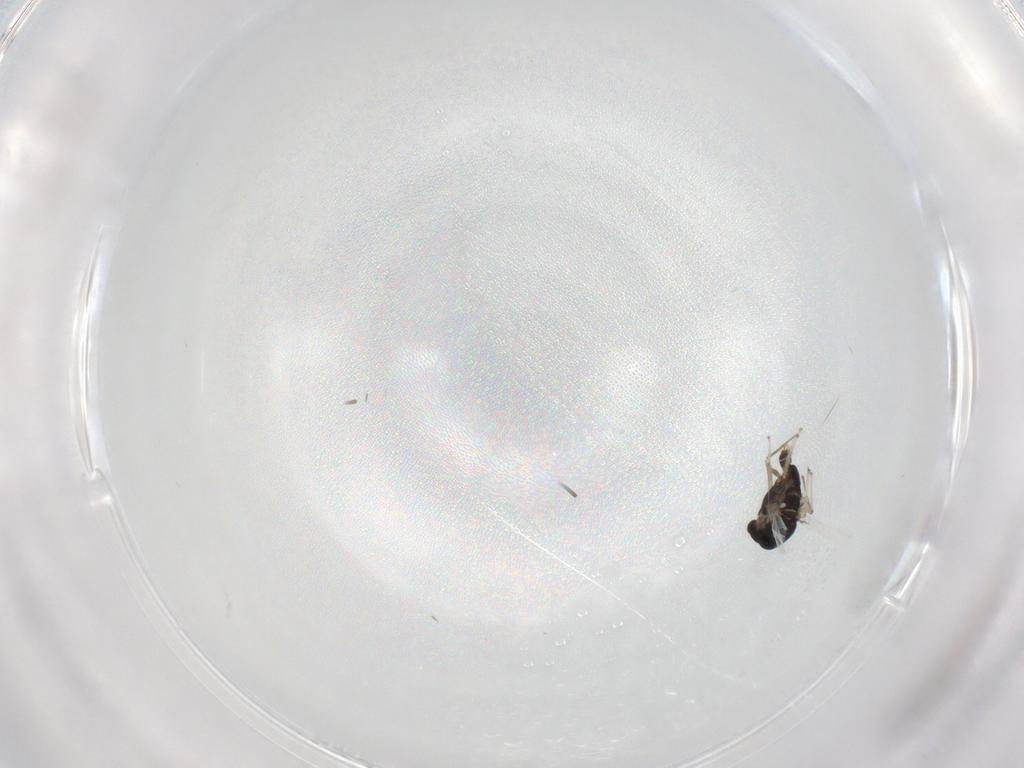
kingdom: Animalia
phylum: Arthropoda
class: Insecta
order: Diptera
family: Chironomidae
